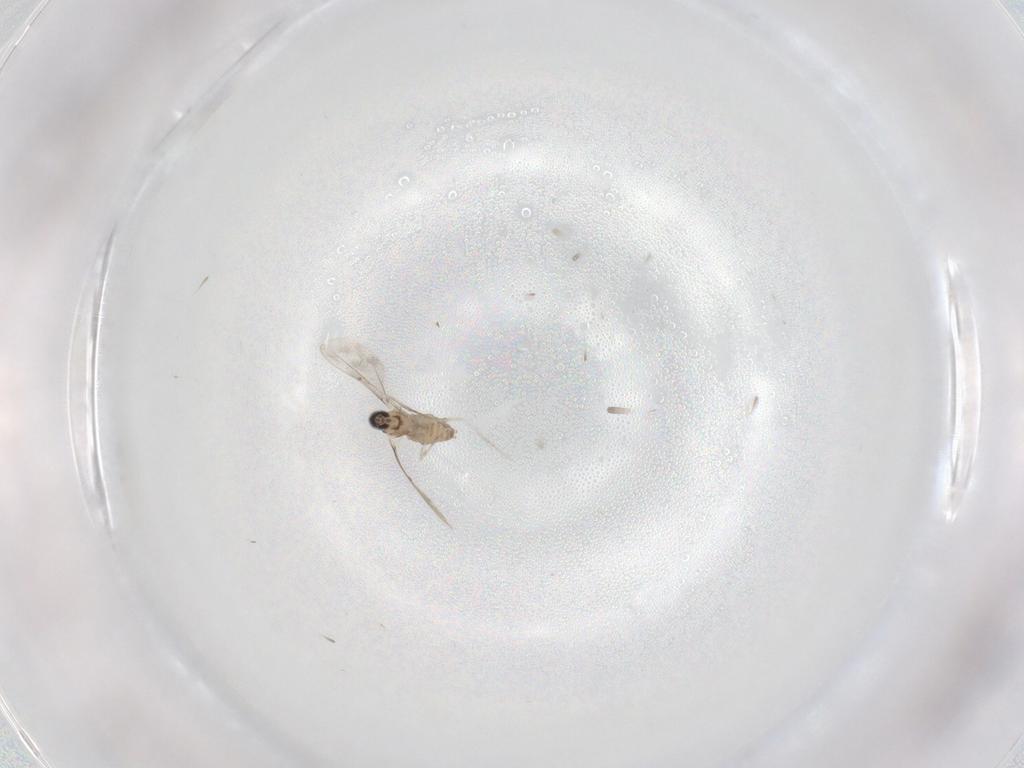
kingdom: Animalia
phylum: Arthropoda
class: Insecta
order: Diptera
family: Cecidomyiidae
